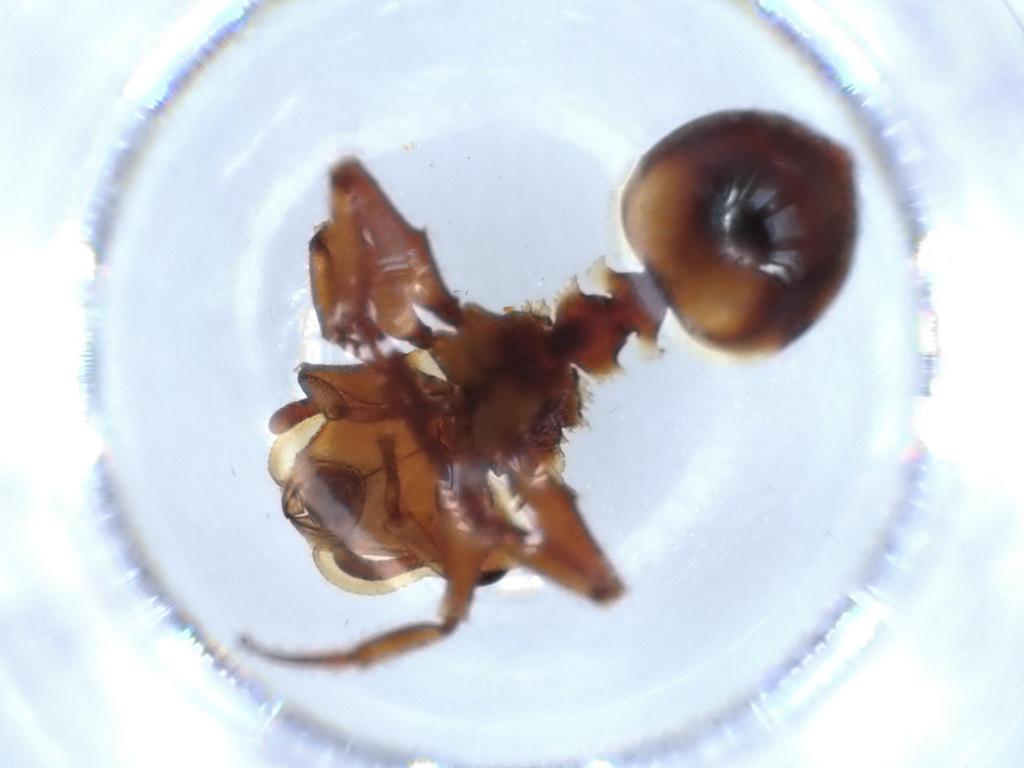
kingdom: Animalia
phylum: Arthropoda
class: Insecta
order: Hymenoptera
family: Formicidae
